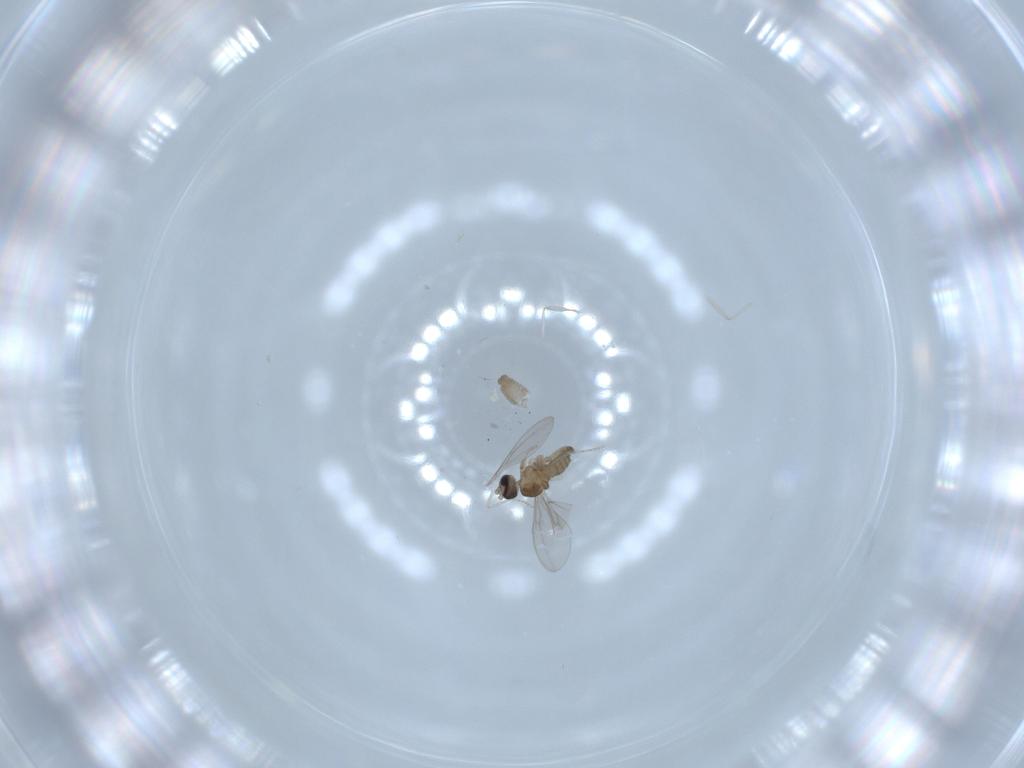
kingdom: Animalia
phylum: Arthropoda
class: Insecta
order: Diptera
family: Cecidomyiidae
